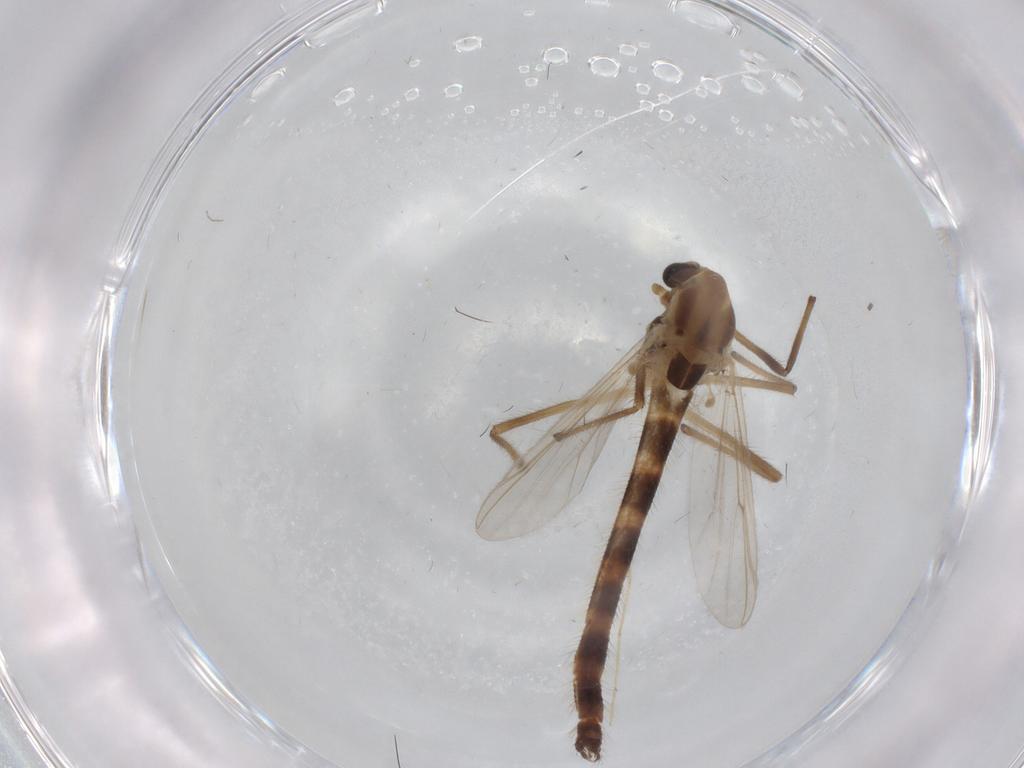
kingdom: Animalia
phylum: Arthropoda
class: Insecta
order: Diptera
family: Chironomidae
